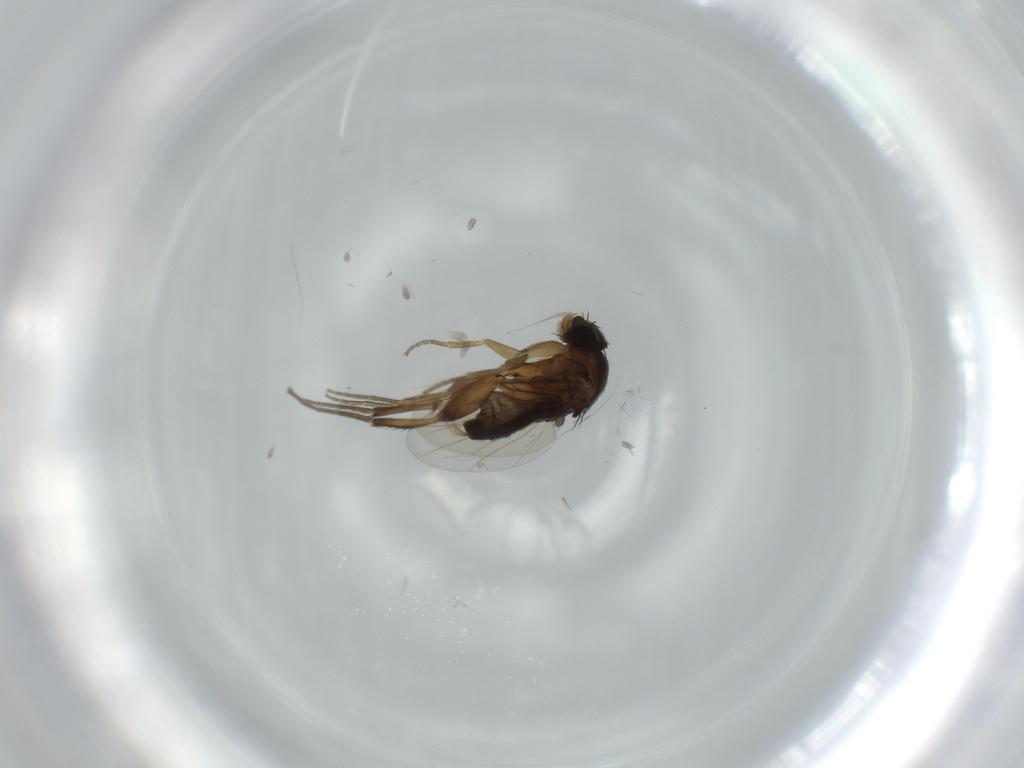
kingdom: Animalia
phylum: Arthropoda
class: Insecta
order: Diptera
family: Phoridae
